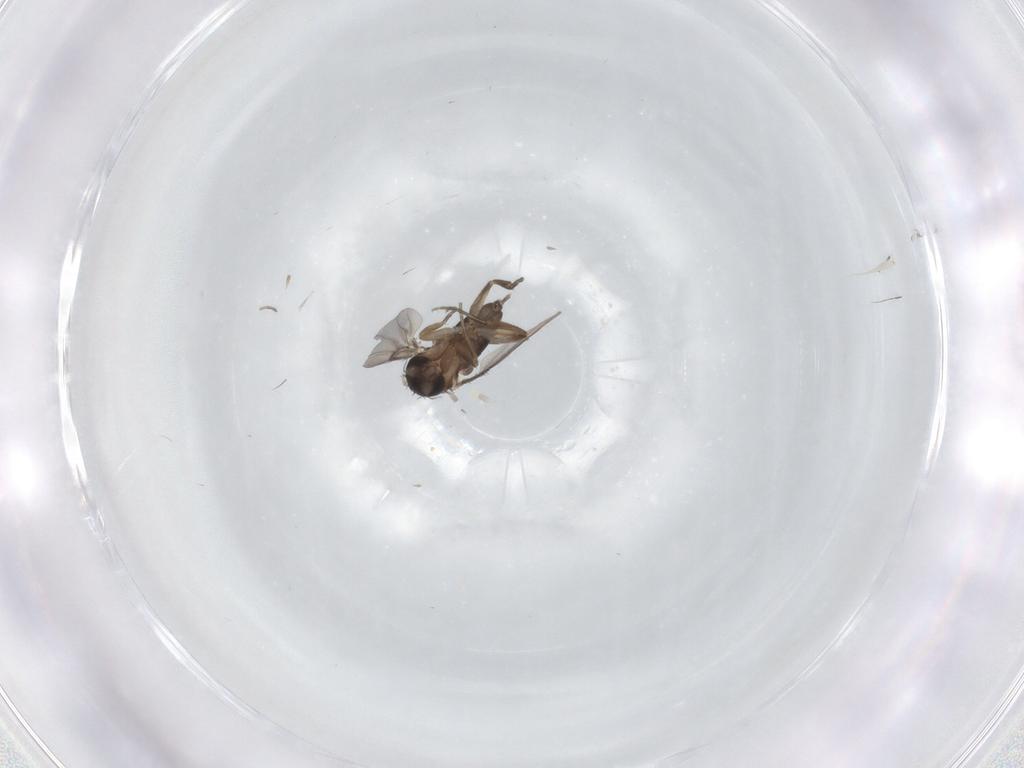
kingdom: Animalia
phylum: Arthropoda
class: Insecta
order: Diptera
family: Phoridae
